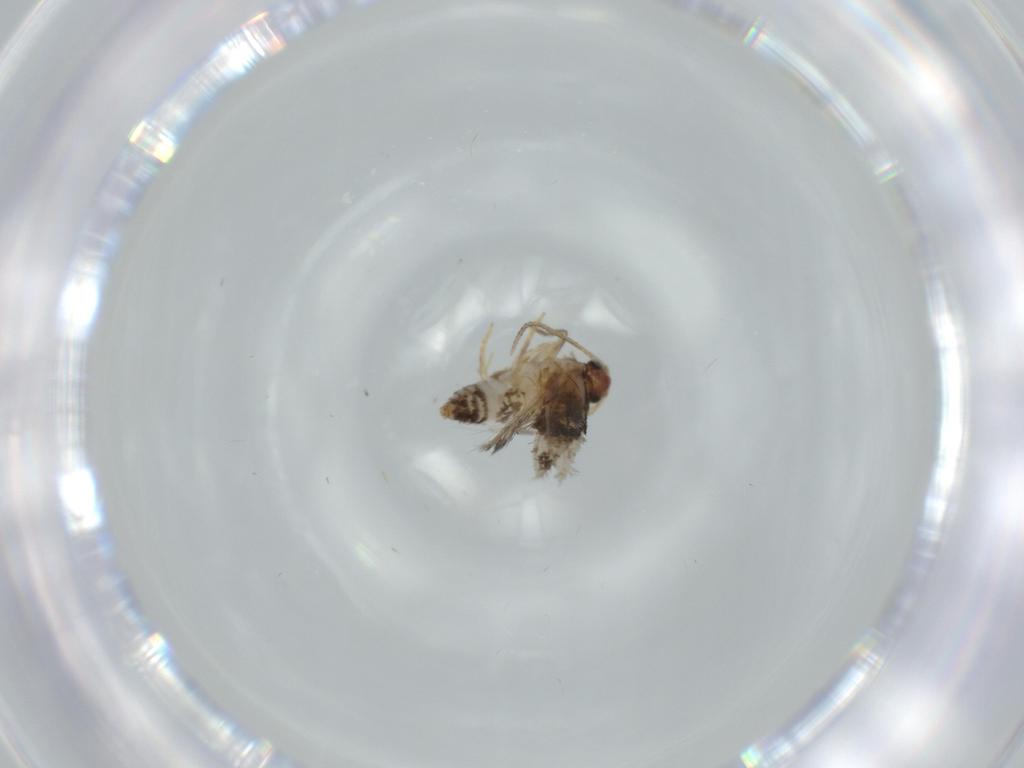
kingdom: Animalia
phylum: Arthropoda
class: Insecta
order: Lepidoptera
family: Nepticulidae
